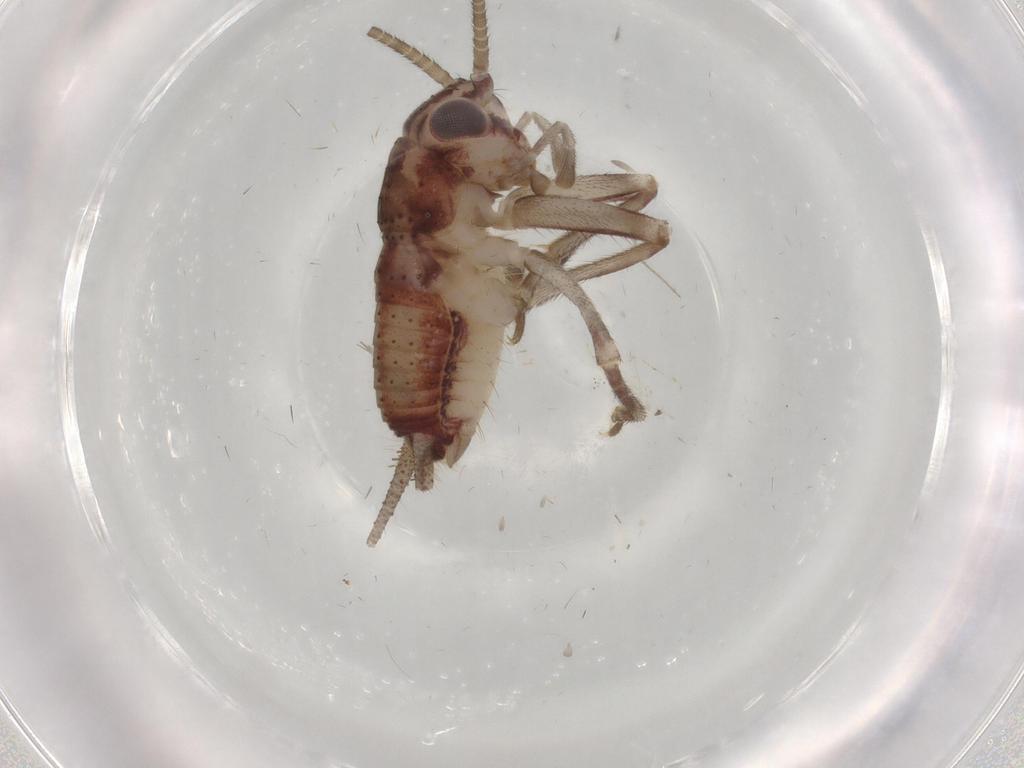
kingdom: Animalia
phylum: Arthropoda
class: Insecta
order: Orthoptera
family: Trigonidiidae
